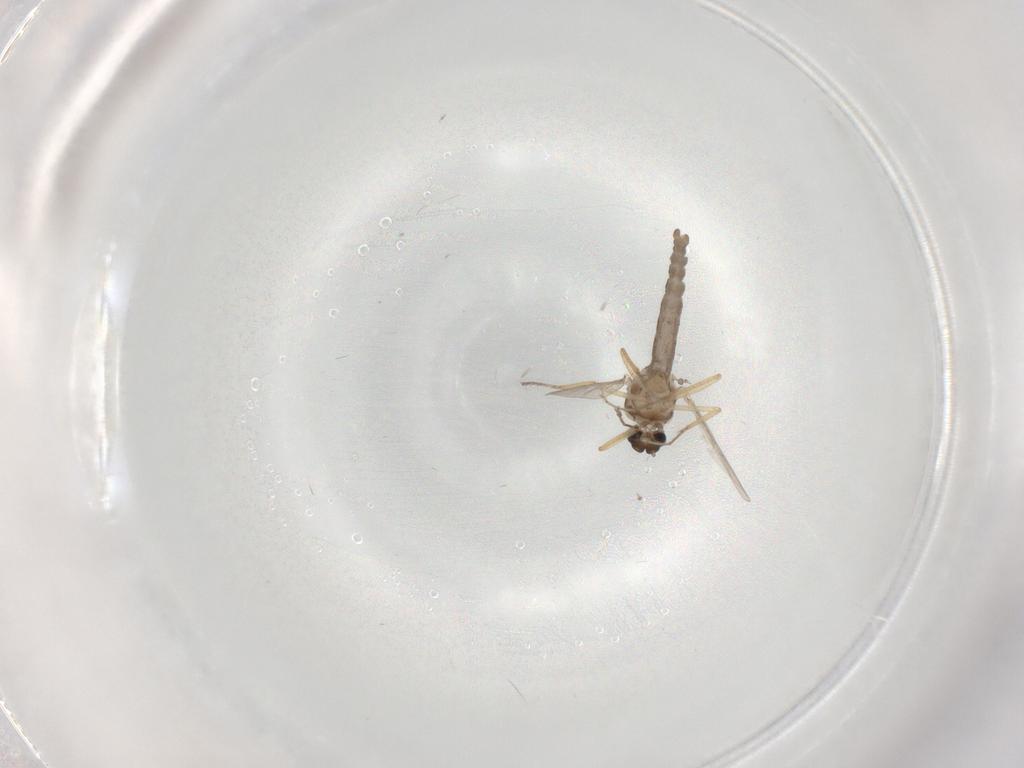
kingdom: Animalia
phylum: Arthropoda
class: Insecta
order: Diptera
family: Ceratopogonidae
